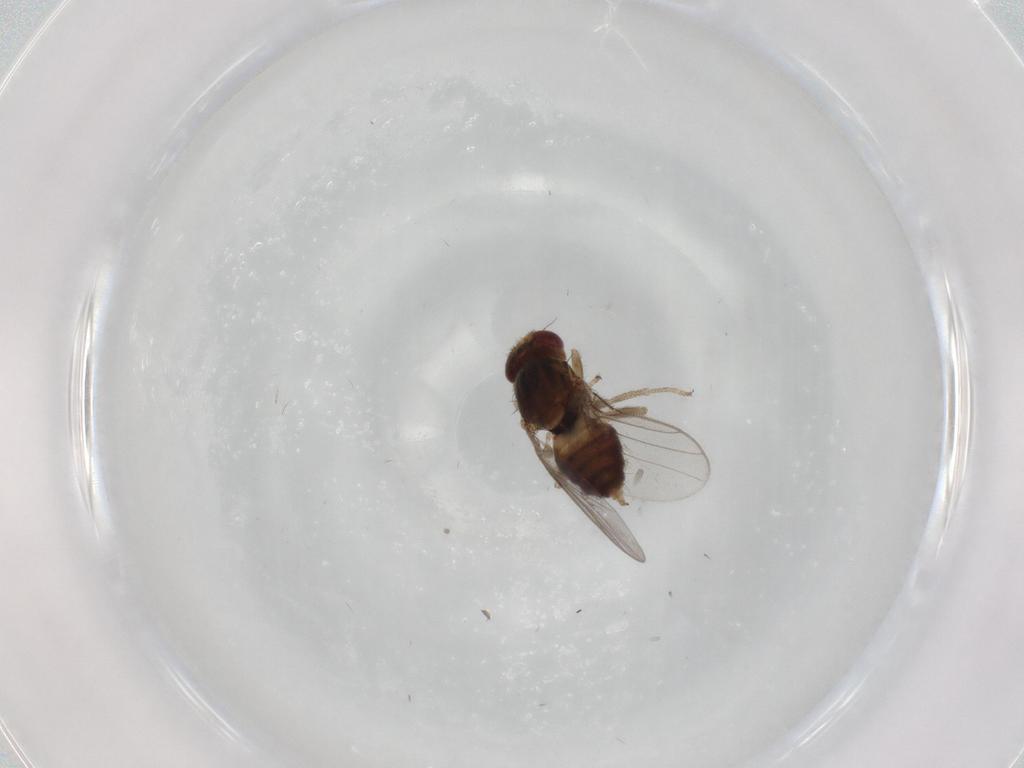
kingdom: Animalia
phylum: Arthropoda
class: Insecta
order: Diptera
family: Chloropidae
